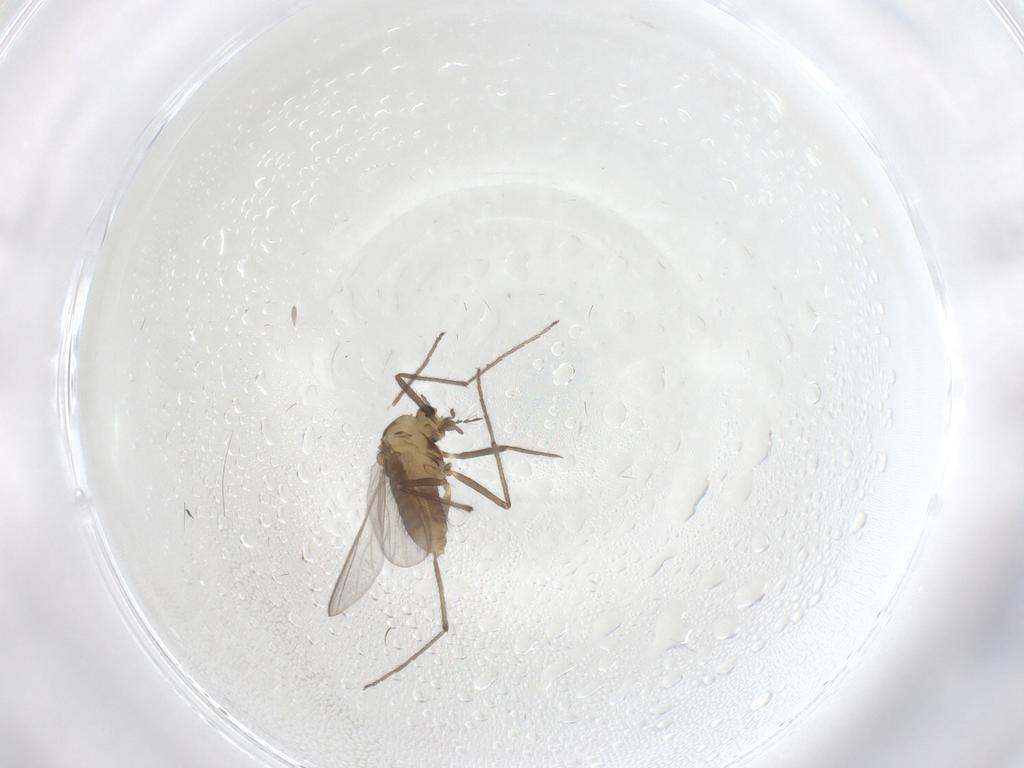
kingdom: Animalia
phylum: Arthropoda
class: Insecta
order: Diptera
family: Chironomidae
